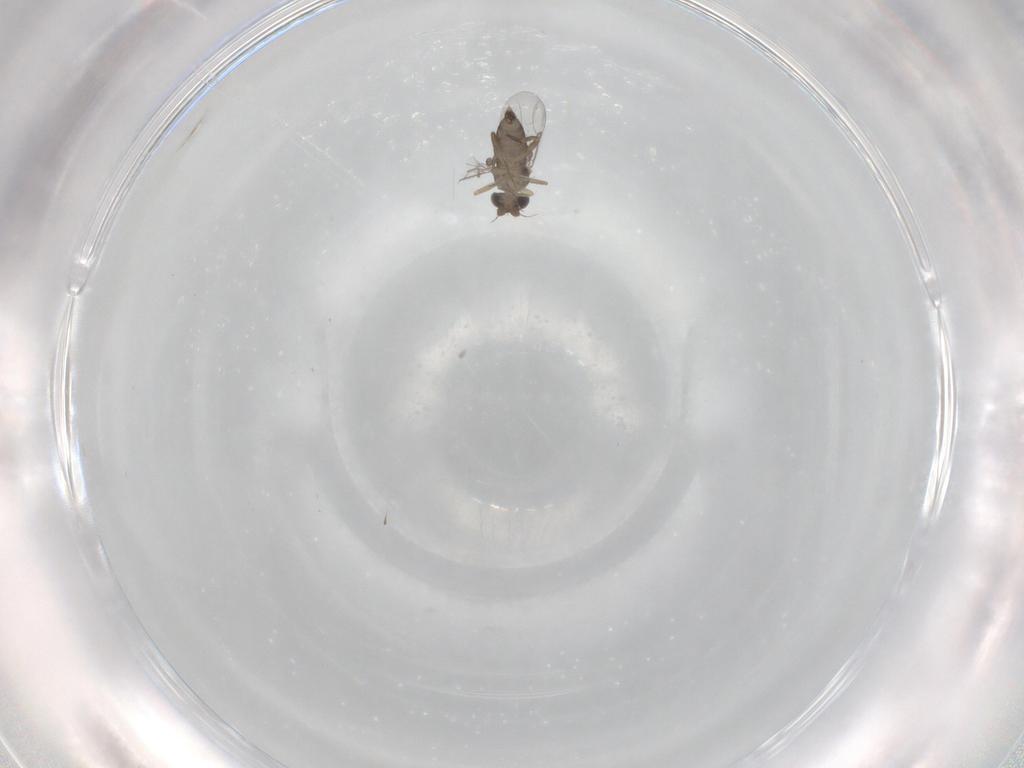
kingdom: Animalia
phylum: Arthropoda
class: Insecta
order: Diptera
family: Phoridae
